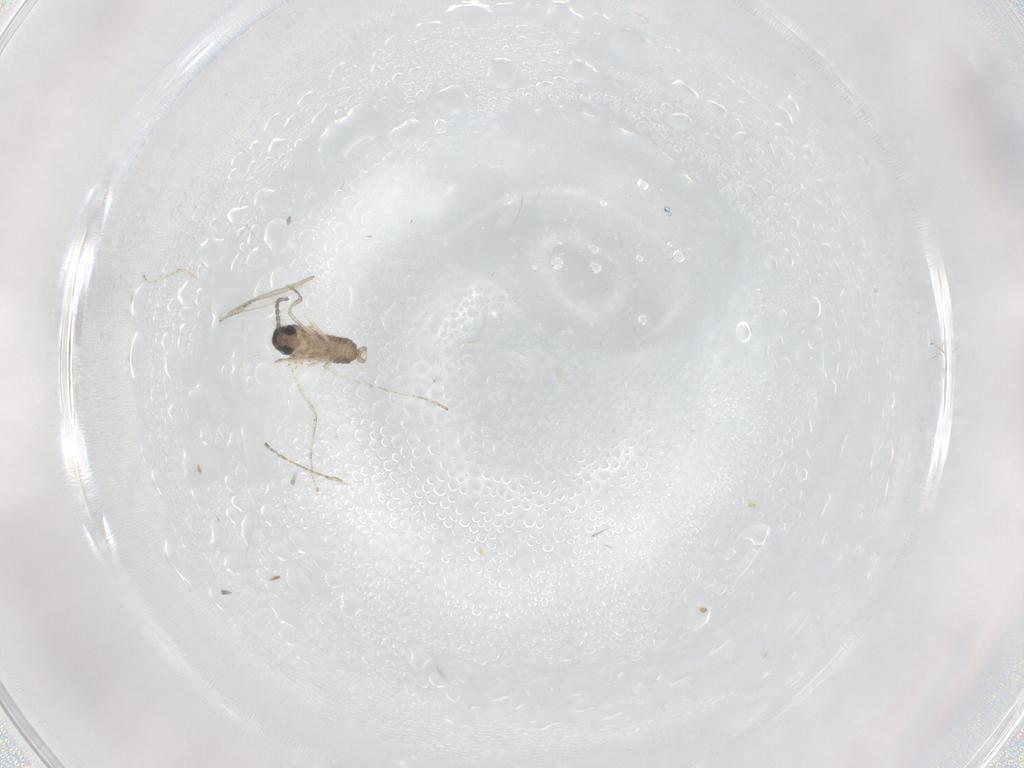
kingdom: Animalia
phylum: Arthropoda
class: Insecta
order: Diptera
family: Cecidomyiidae
